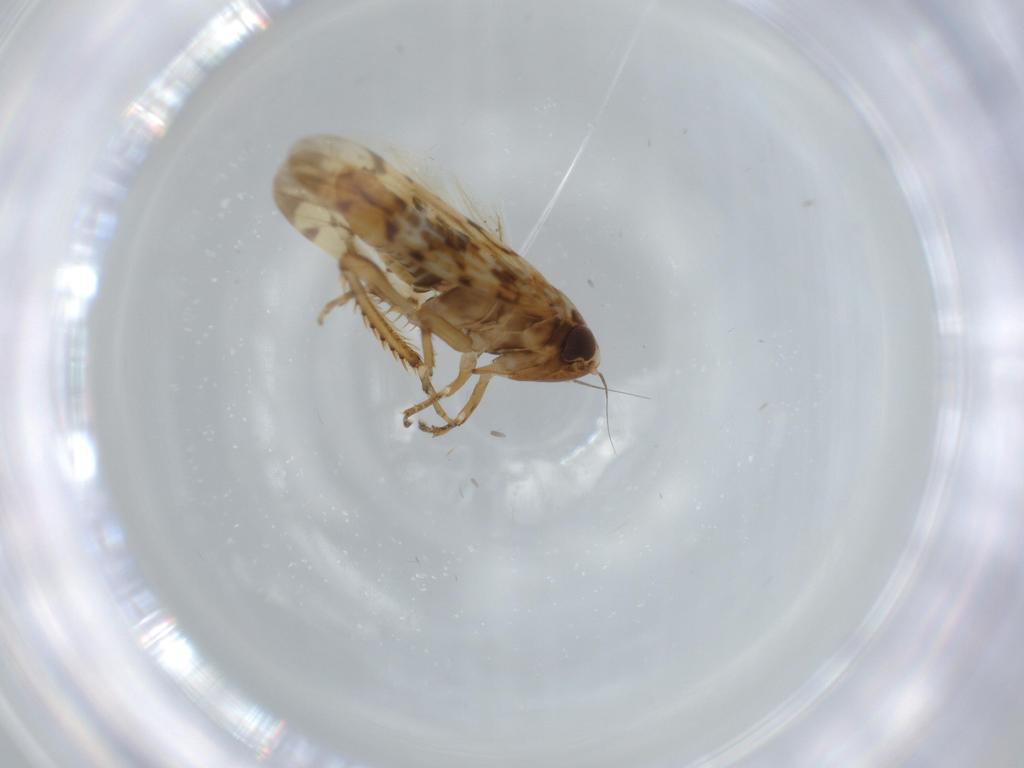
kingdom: Animalia
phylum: Arthropoda
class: Insecta
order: Hemiptera
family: Cicadellidae
